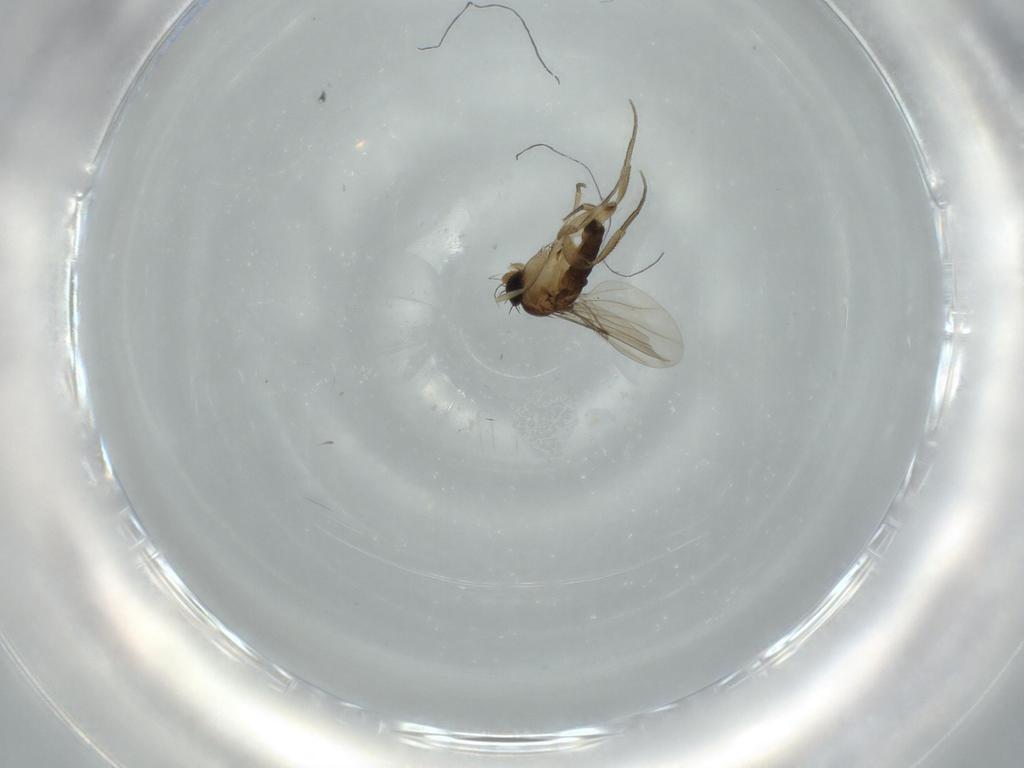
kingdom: Animalia
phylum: Arthropoda
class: Insecta
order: Diptera
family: Phoridae
